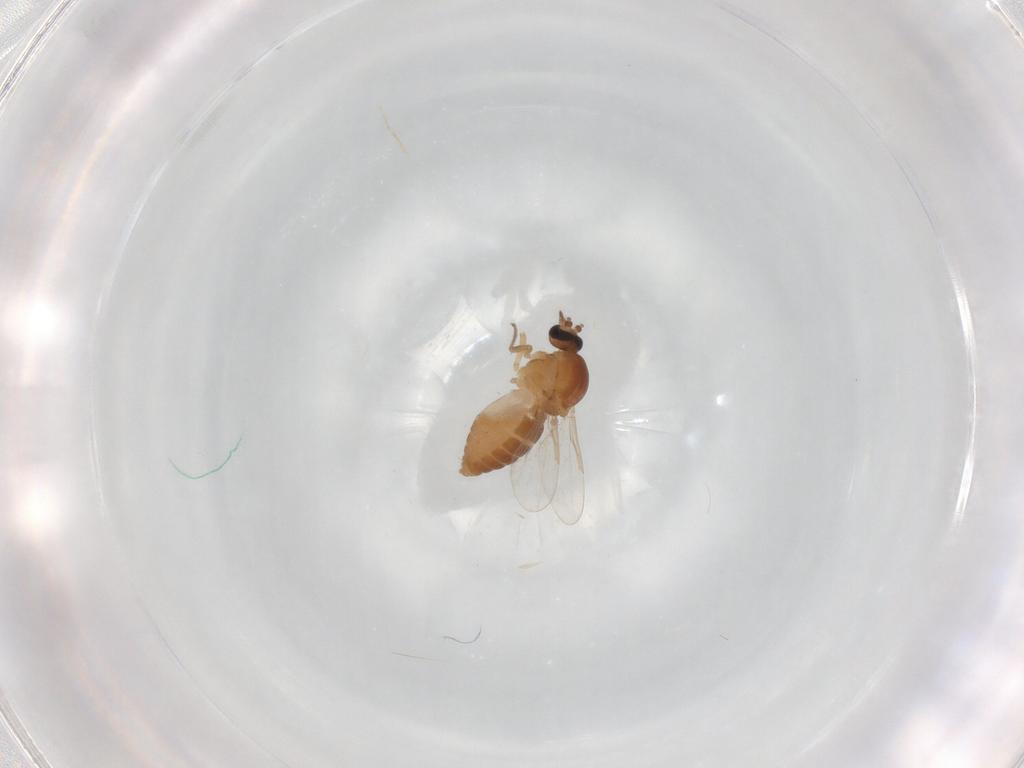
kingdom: Animalia
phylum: Arthropoda
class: Insecta
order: Diptera
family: Ceratopogonidae
